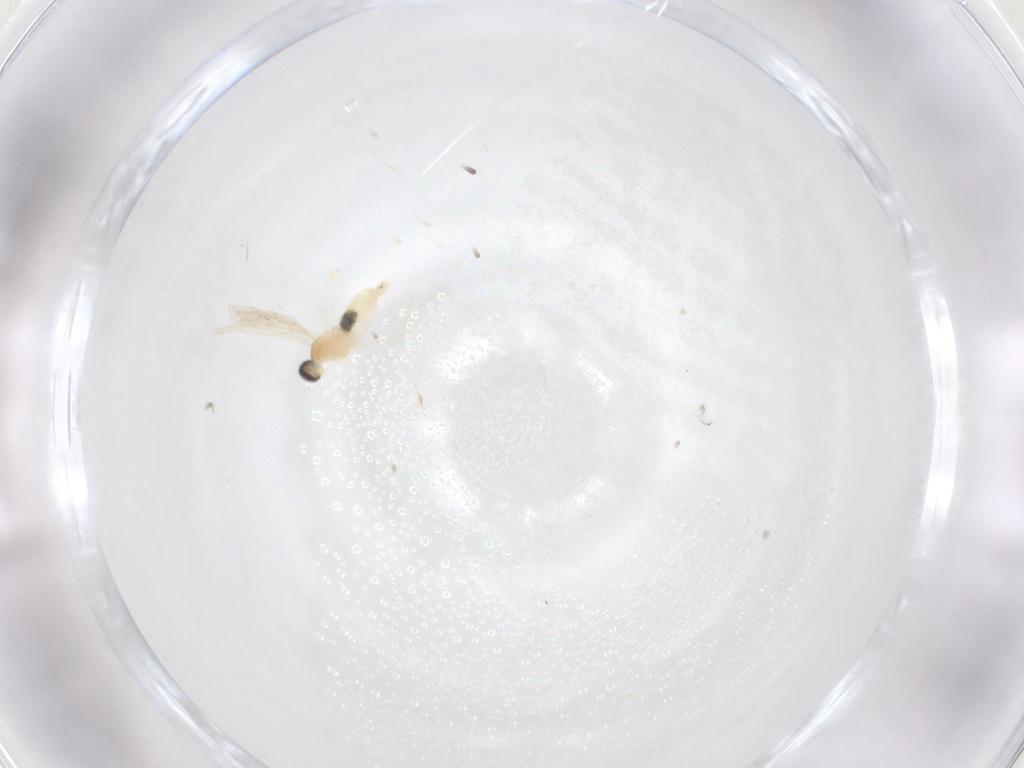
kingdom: Animalia
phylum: Arthropoda
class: Insecta
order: Diptera
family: Cecidomyiidae
